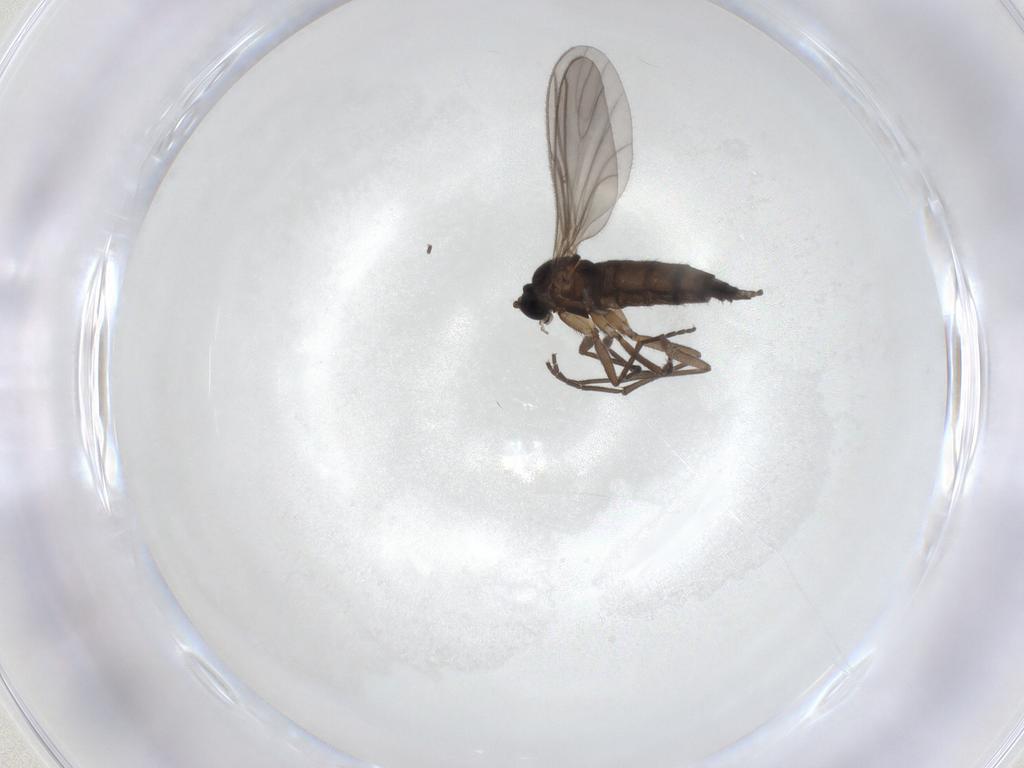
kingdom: Animalia
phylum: Arthropoda
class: Insecta
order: Diptera
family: Sciaridae
